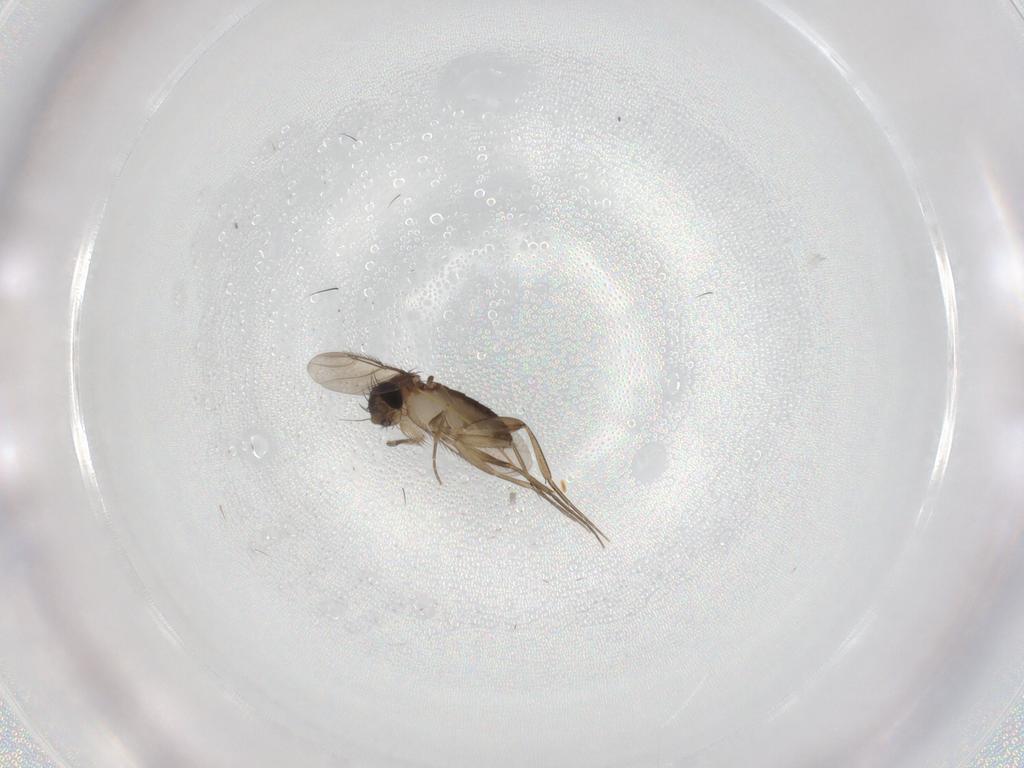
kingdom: Animalia
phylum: Arthropoda
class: Insecta
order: Diptera
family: Phoridae
